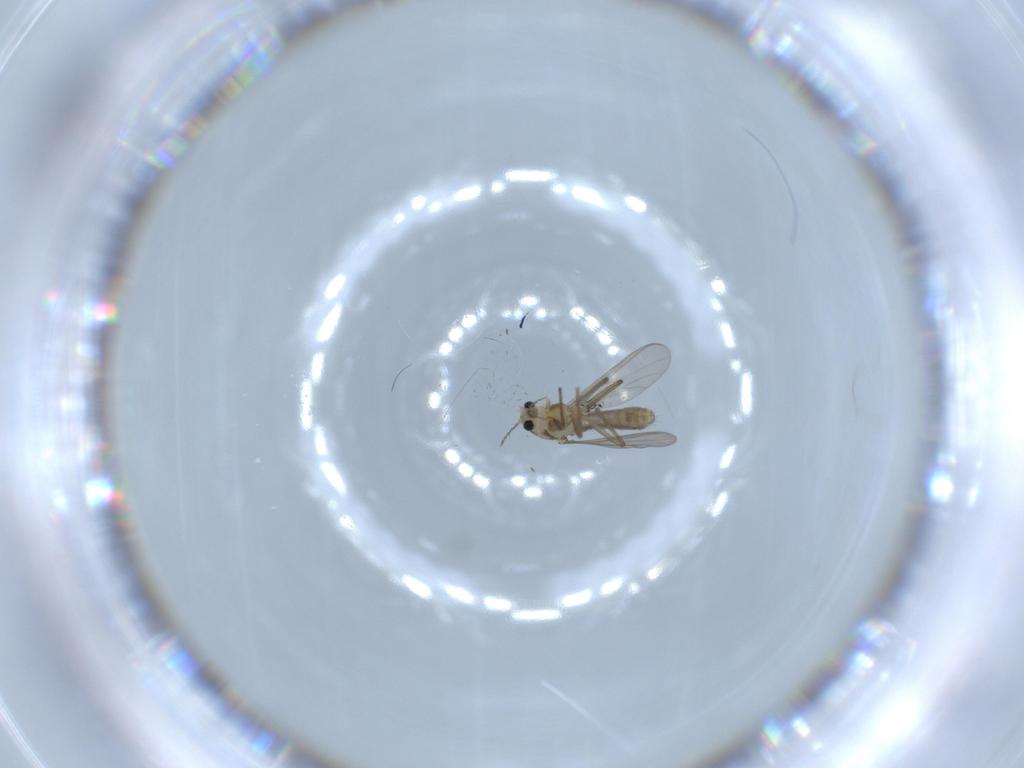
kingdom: Animalia
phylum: Arthropoda
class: Insecta
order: Diptera
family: Chironomidae
